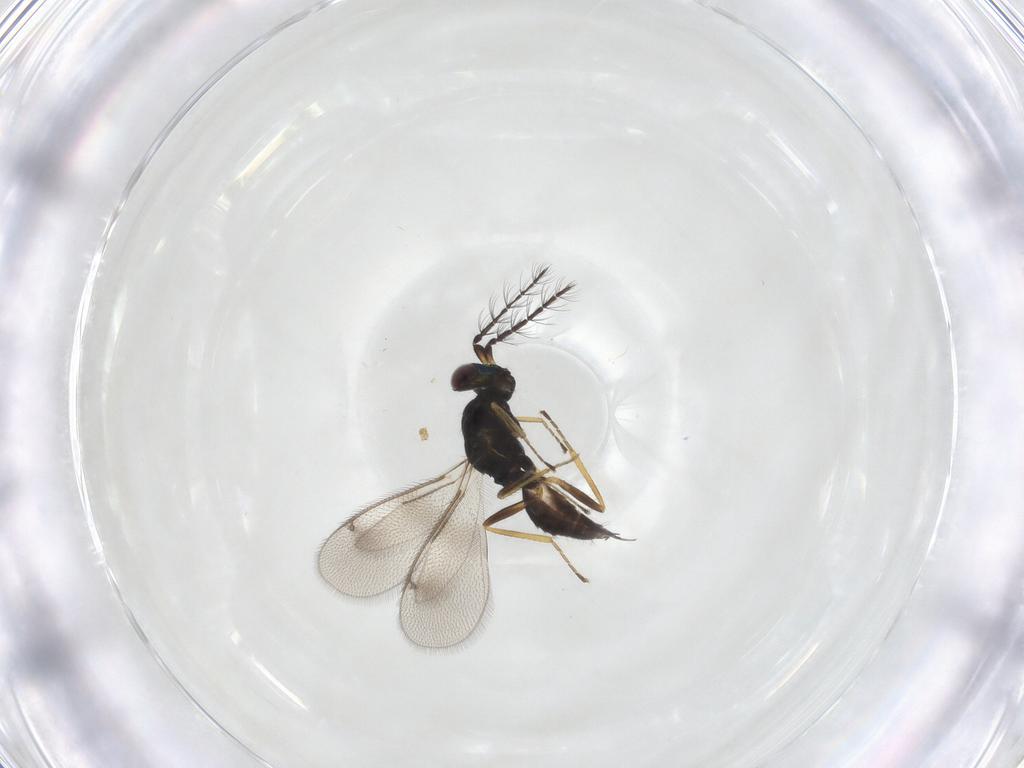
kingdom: Animalia
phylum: Arthropoda
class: Insecta
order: Hymenoptera
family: Eulophidae
